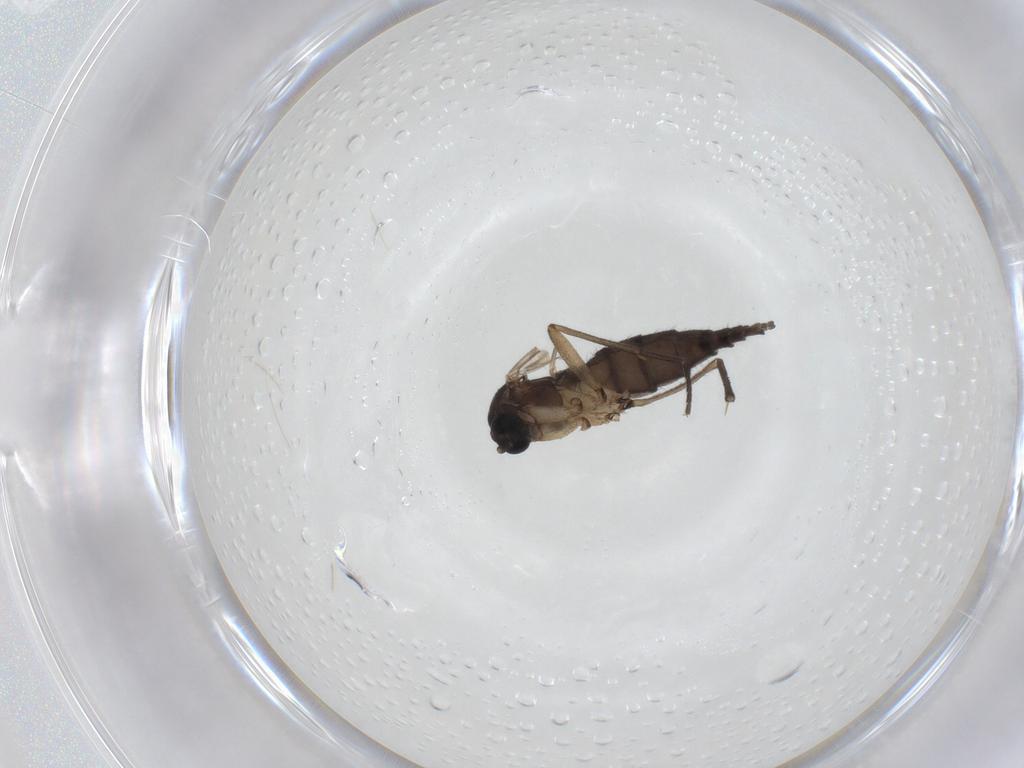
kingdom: Animalia
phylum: Arthropoda
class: Insecta
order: Diptera
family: Sciaridae
